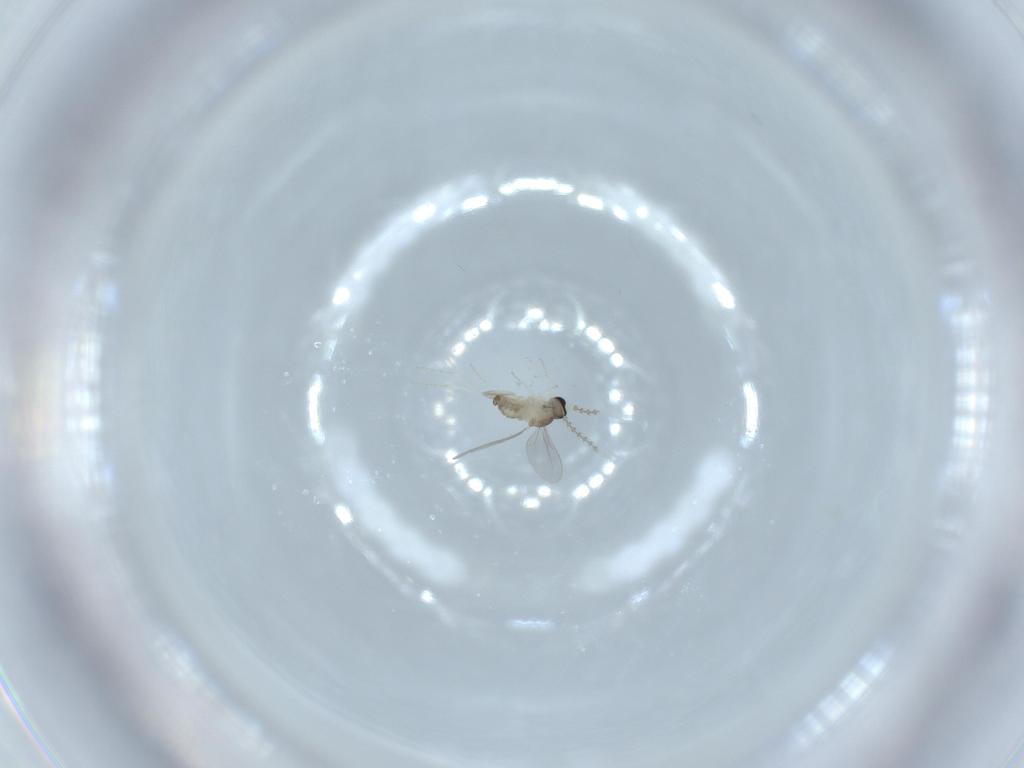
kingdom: Animalia
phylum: Arthropoda
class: Insecta
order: Diptera
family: Cecidomyiidae
